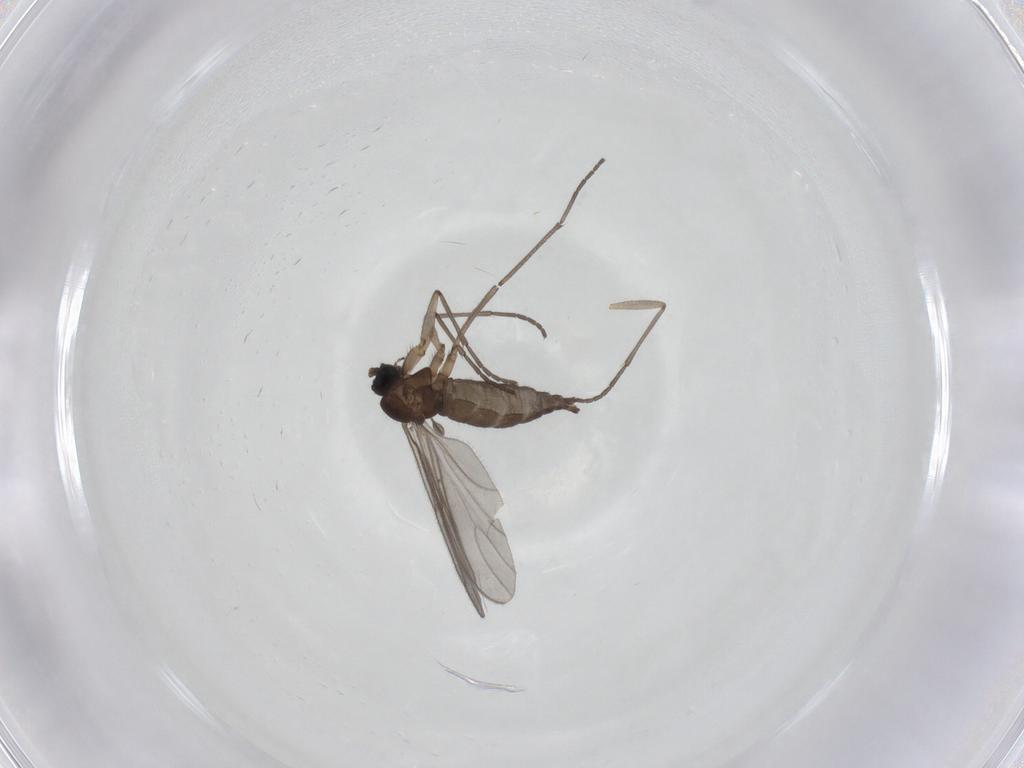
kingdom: Animalia
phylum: Arthropoda
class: Insecta
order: Diptera
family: Sciaridae
